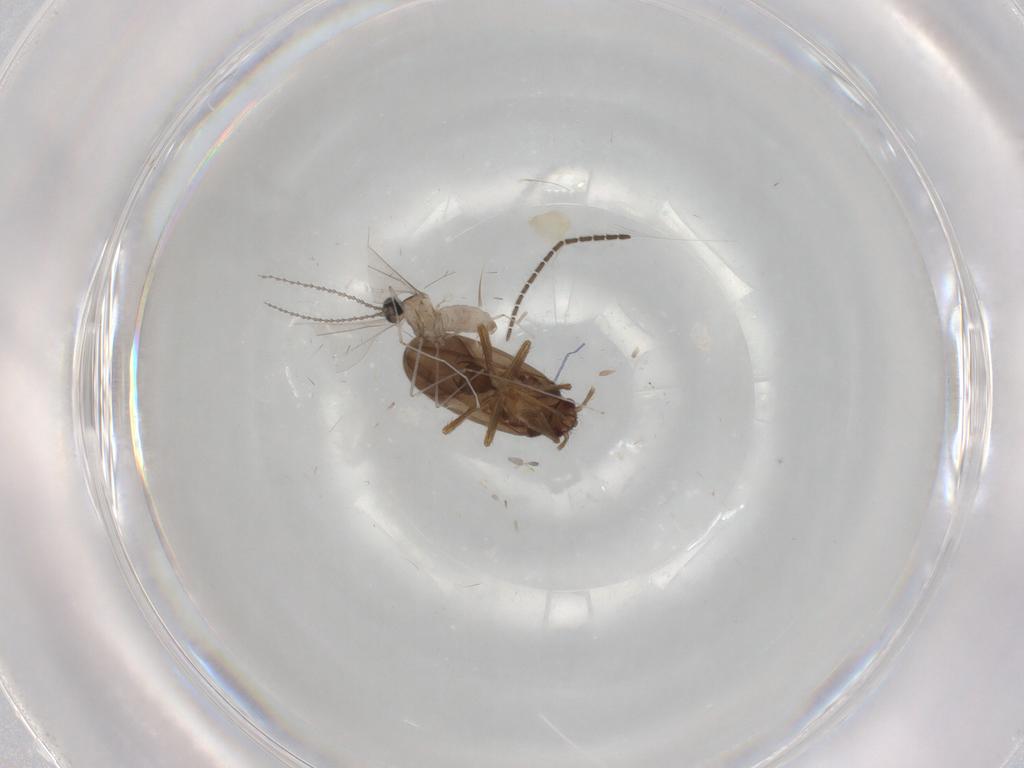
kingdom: Animalia
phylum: Arthropoda
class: Insecta
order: Diptera
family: Cecidomyiidae
